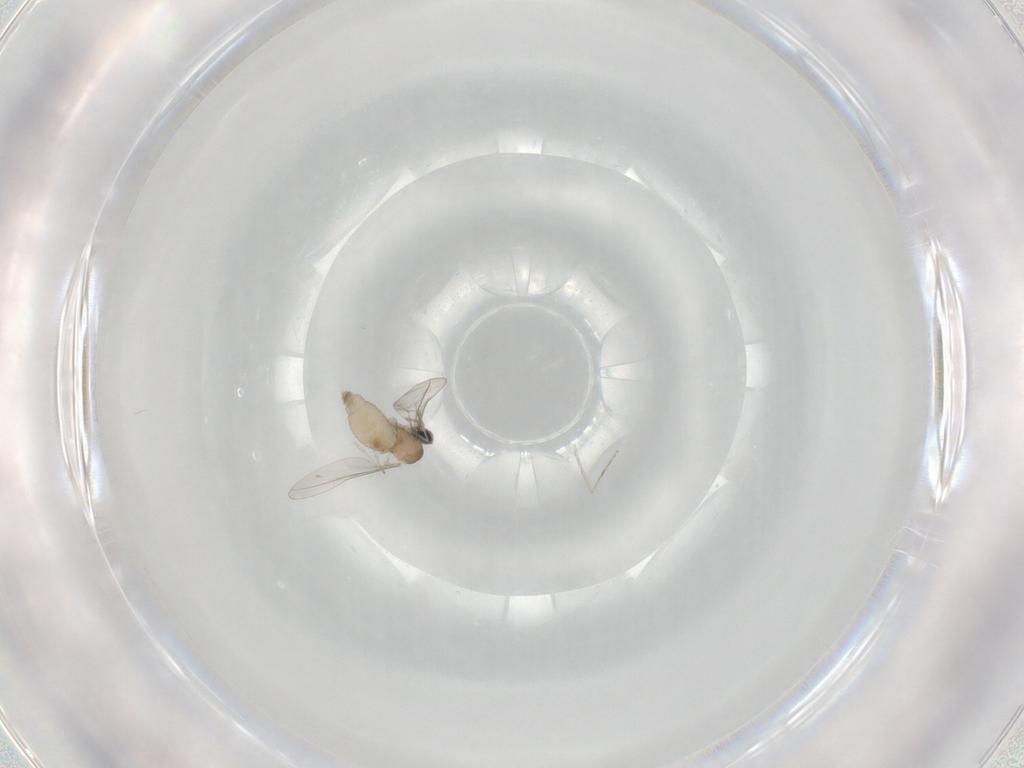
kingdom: Animalia
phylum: Arthropoda
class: Insecta
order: Diptera
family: Cecidomyiidae
